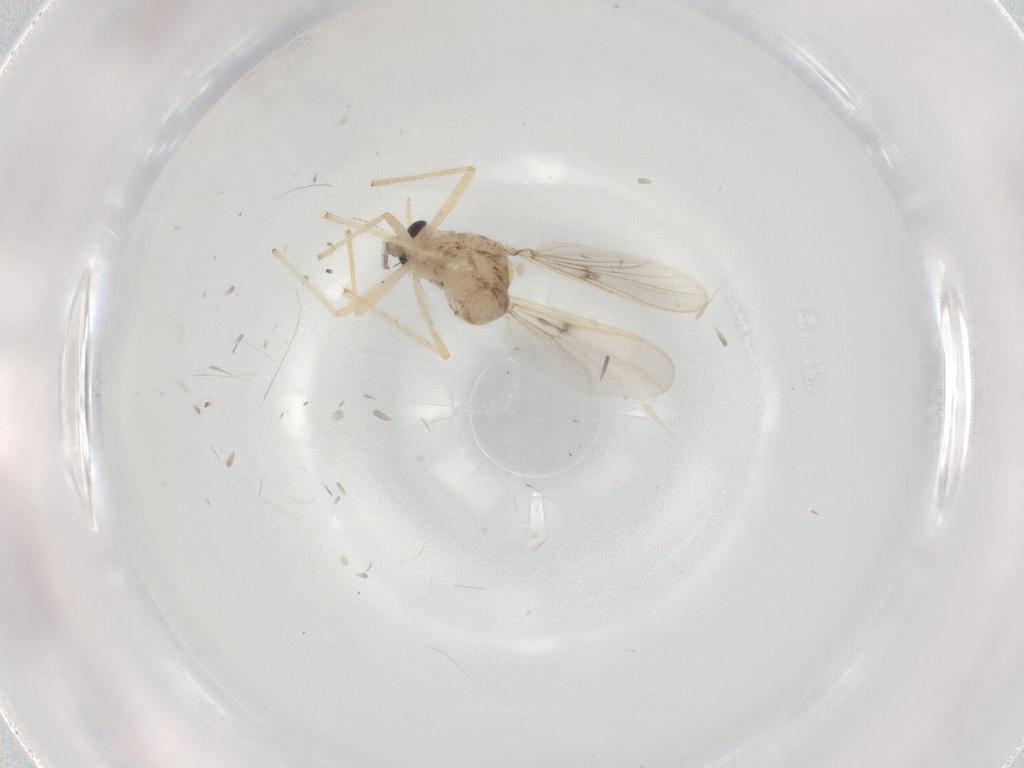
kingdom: Animalia
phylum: Arthropoda
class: Insecta
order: Diptera
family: Chironomidae
